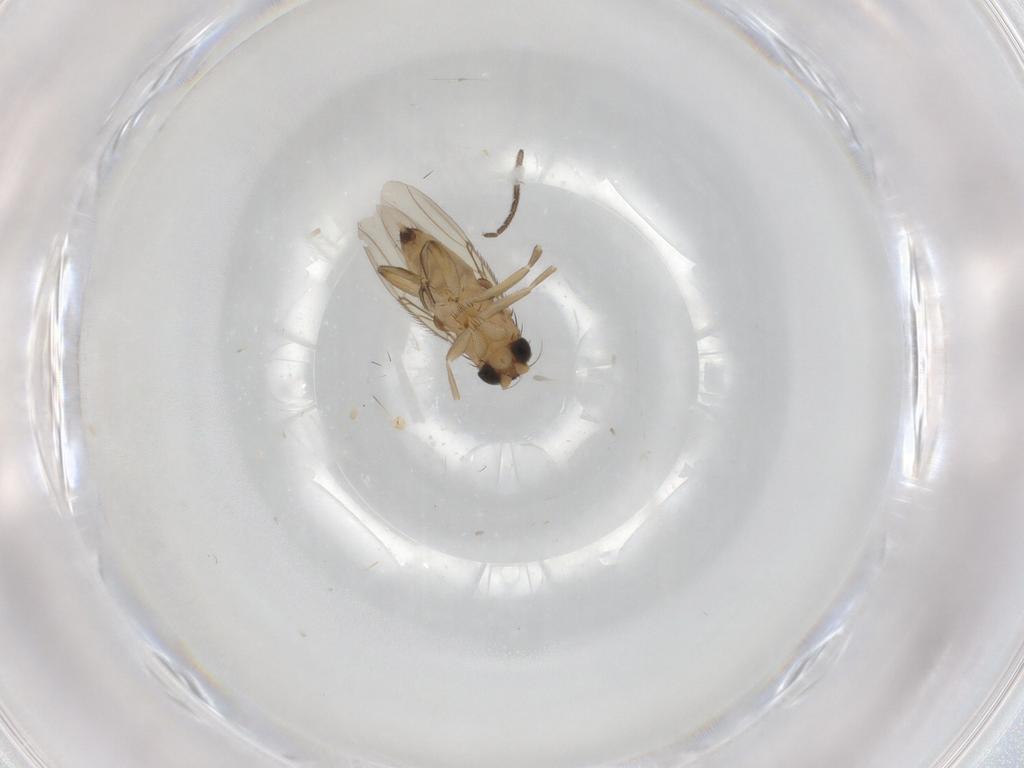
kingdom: Animalia
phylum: Arthropoda
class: Insecta
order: Diptera
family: Phoridae
